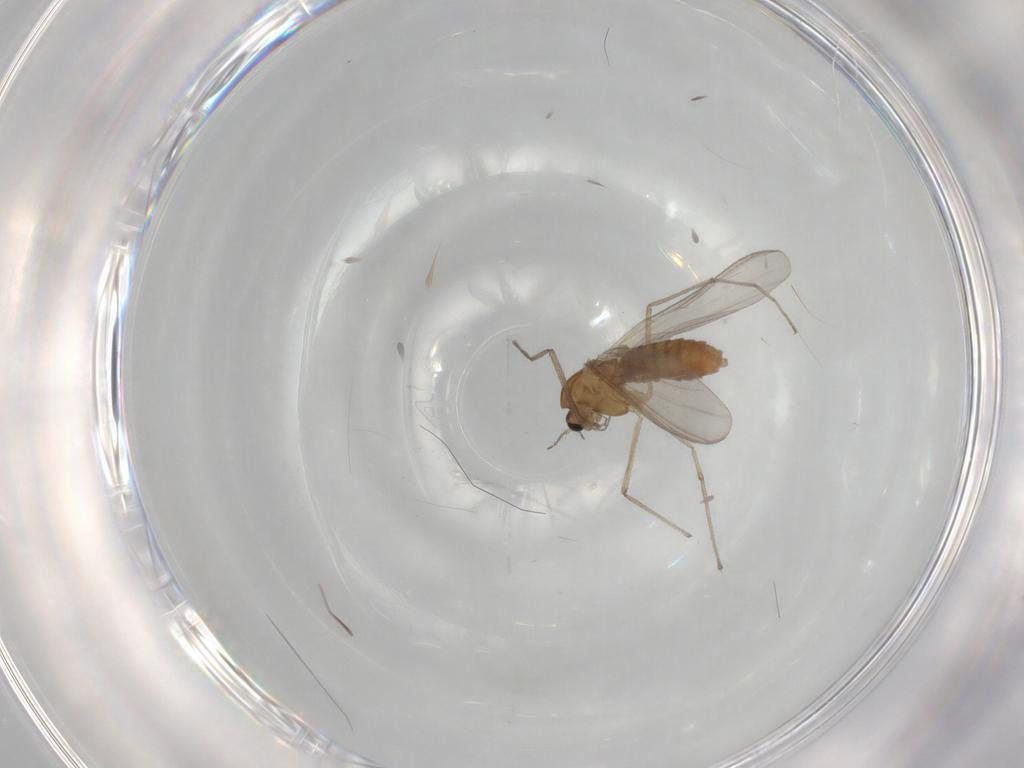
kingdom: Animalia
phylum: Arthropoda
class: Insecta
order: Diptera
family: Chironomidae
